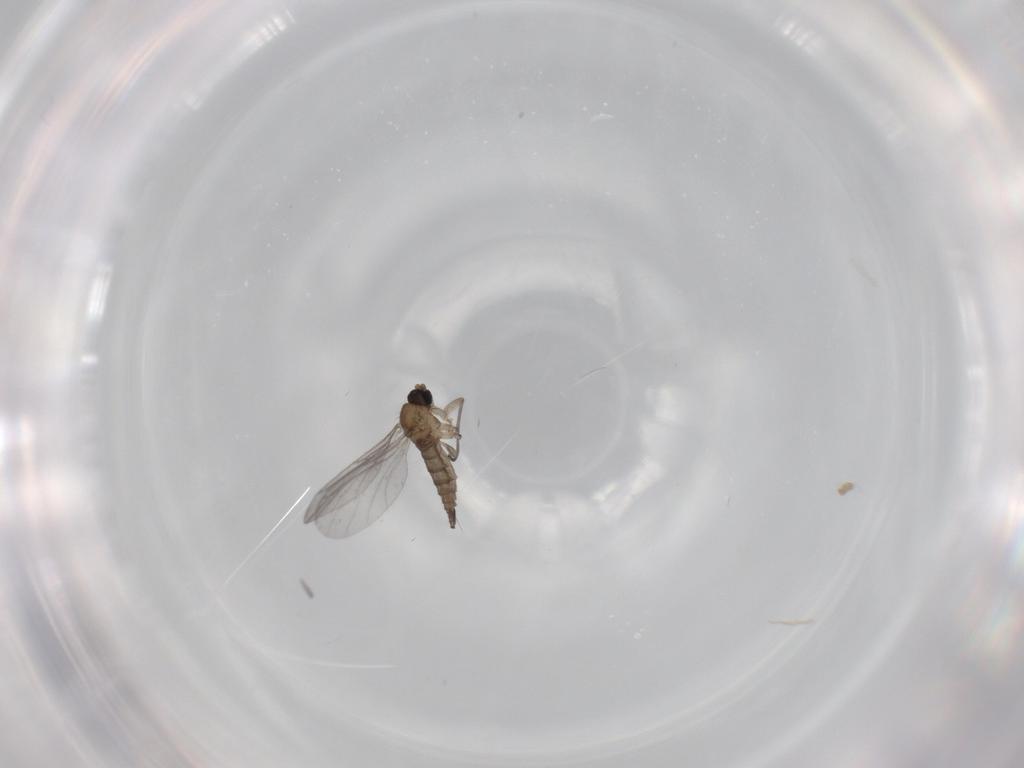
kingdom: Animalia
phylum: Arthropoda
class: Insecta
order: Diptera
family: Sciaridae
